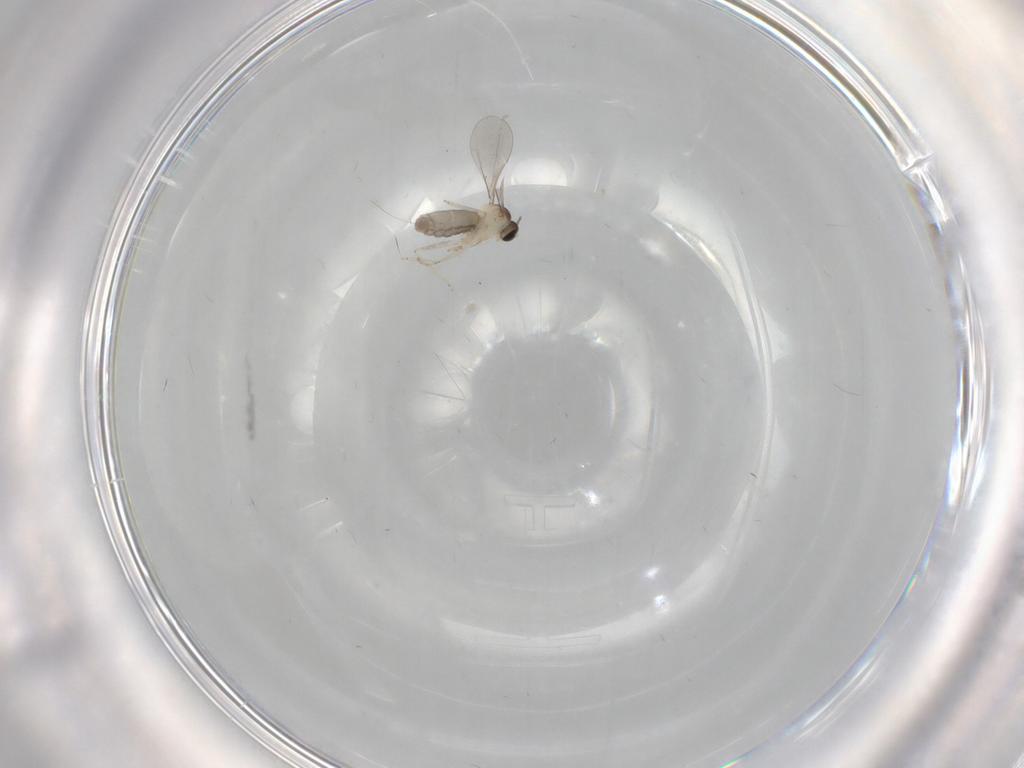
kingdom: Animalia
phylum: Arthropoda
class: Insecta
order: Diptera
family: Cecidomyiidae
